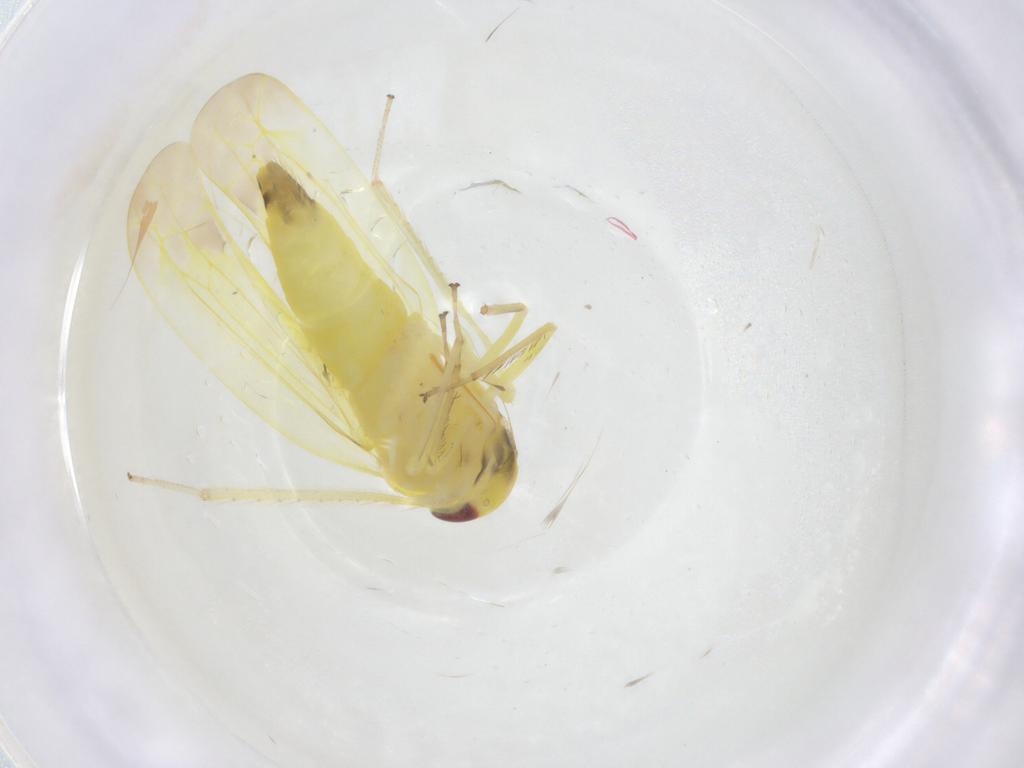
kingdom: Animalia
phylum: Arthropoda
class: Insecta
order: Hemiptera
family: Cicadellidae
